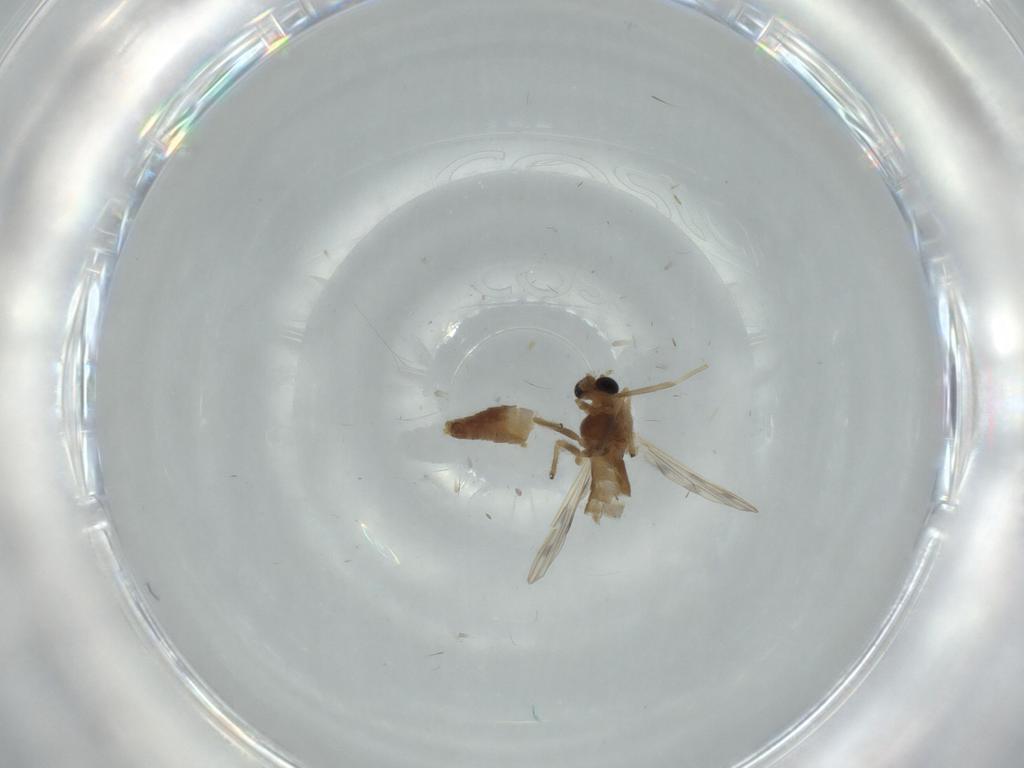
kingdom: Animalia
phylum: Arthropoda
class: Insecta
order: Diptera
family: Chironomidae
